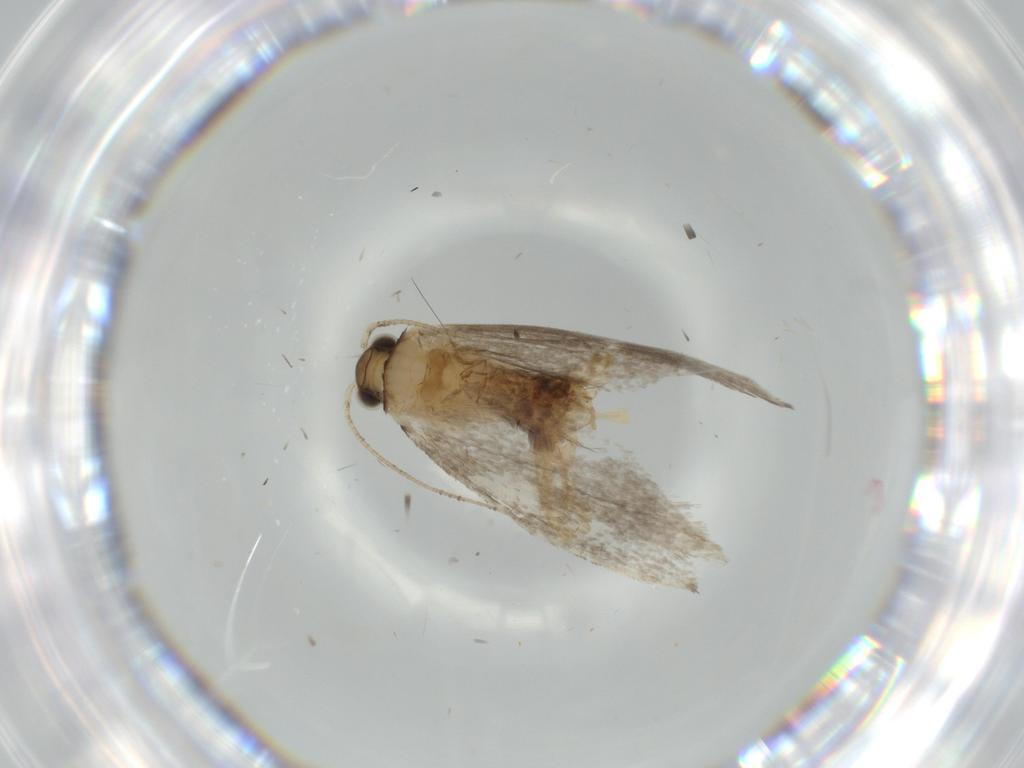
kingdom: Animalia
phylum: Arthropoda
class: Insecta
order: Lepidoptera
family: Tineidae
